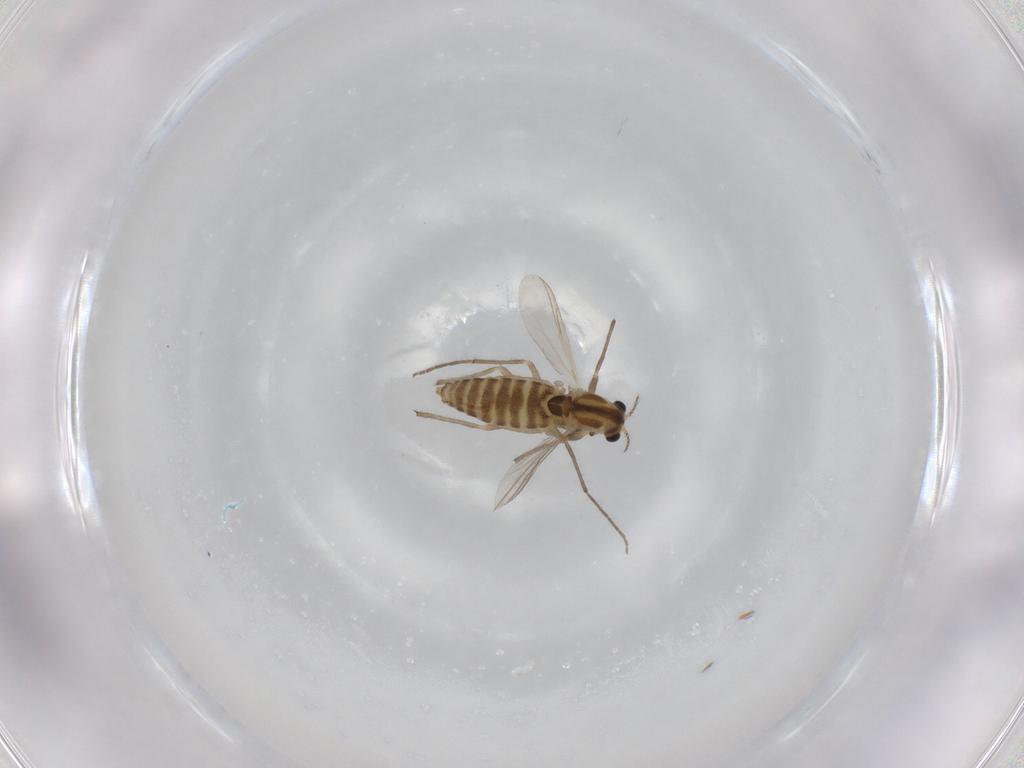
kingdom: Animalia
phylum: Arthropoda
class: Insecta
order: Diptera
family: Chironomidae
